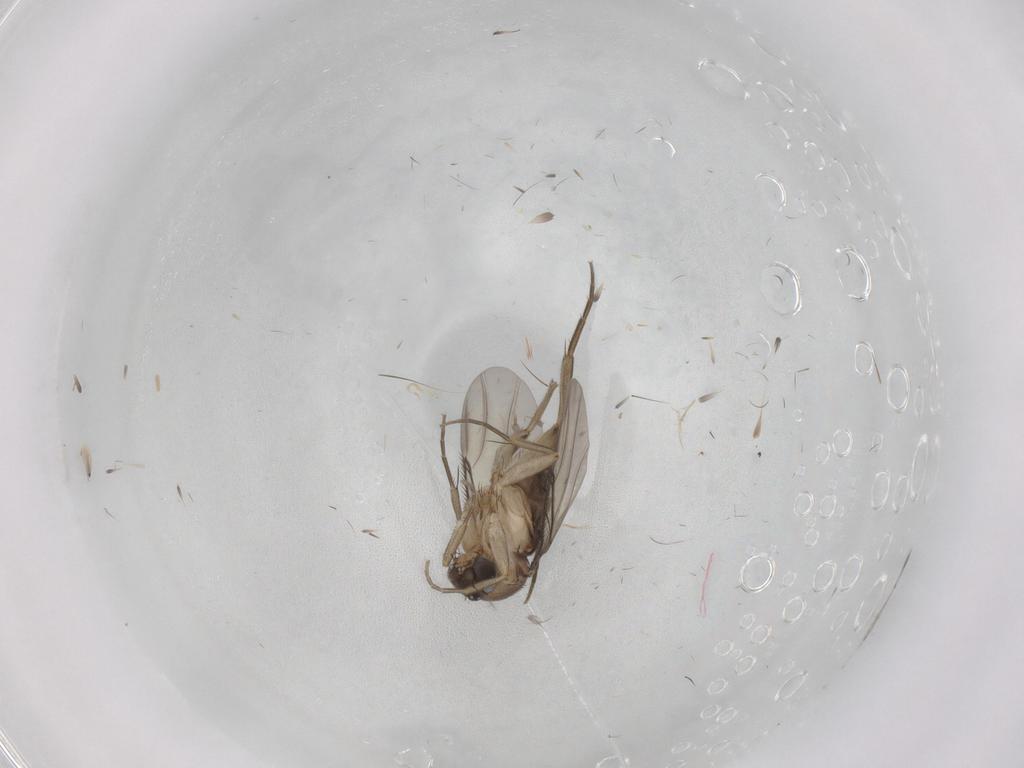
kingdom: Animalia
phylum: Arthropoda
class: Insecta
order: Diptera
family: Phoridae
